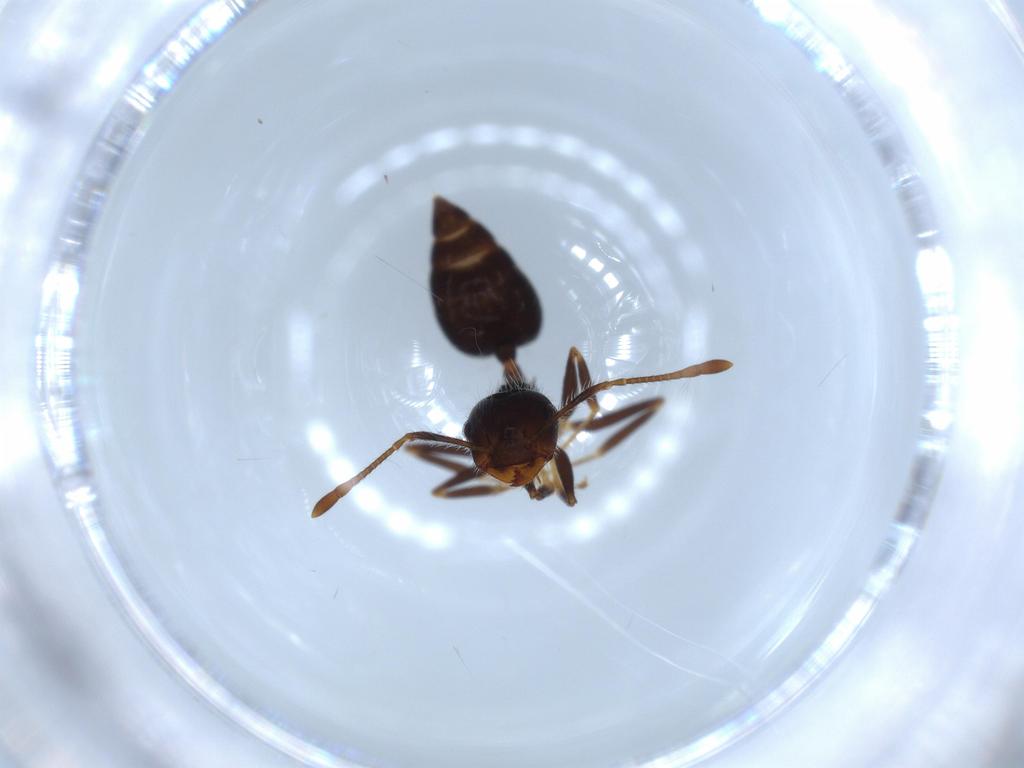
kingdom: Animalia
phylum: Arthropoda
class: Insecta
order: Hymenoptera
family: Formicidae
